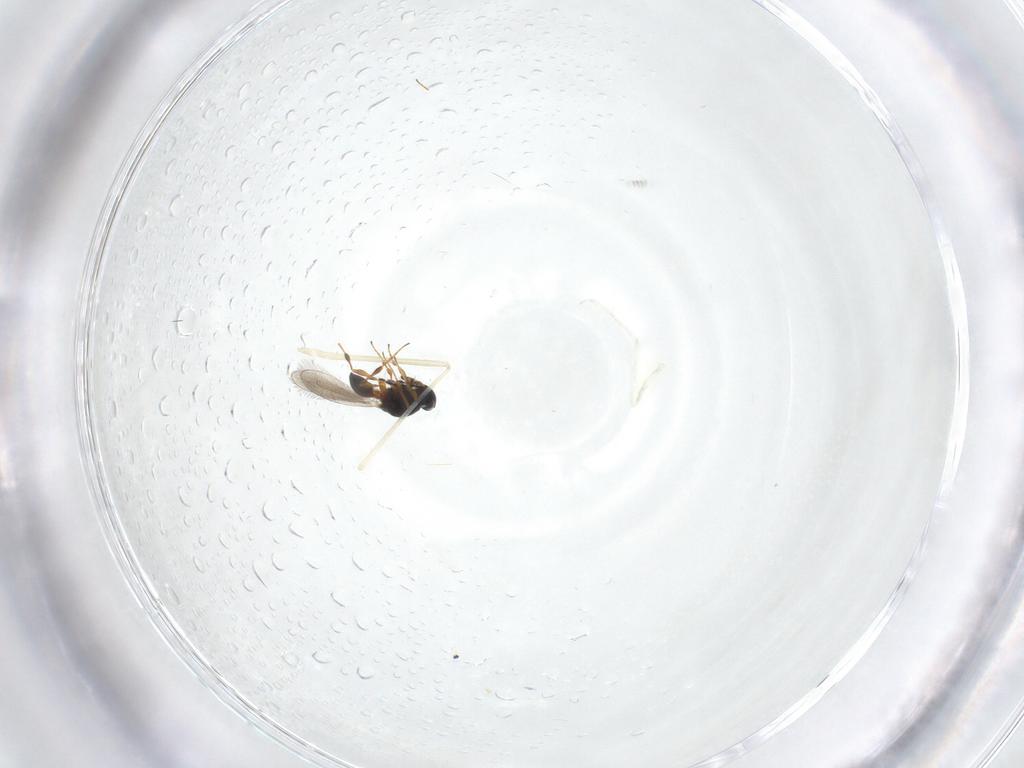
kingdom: Animalia
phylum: Arthropoda
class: Insecta
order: Hymenoptera
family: Platygastridae
